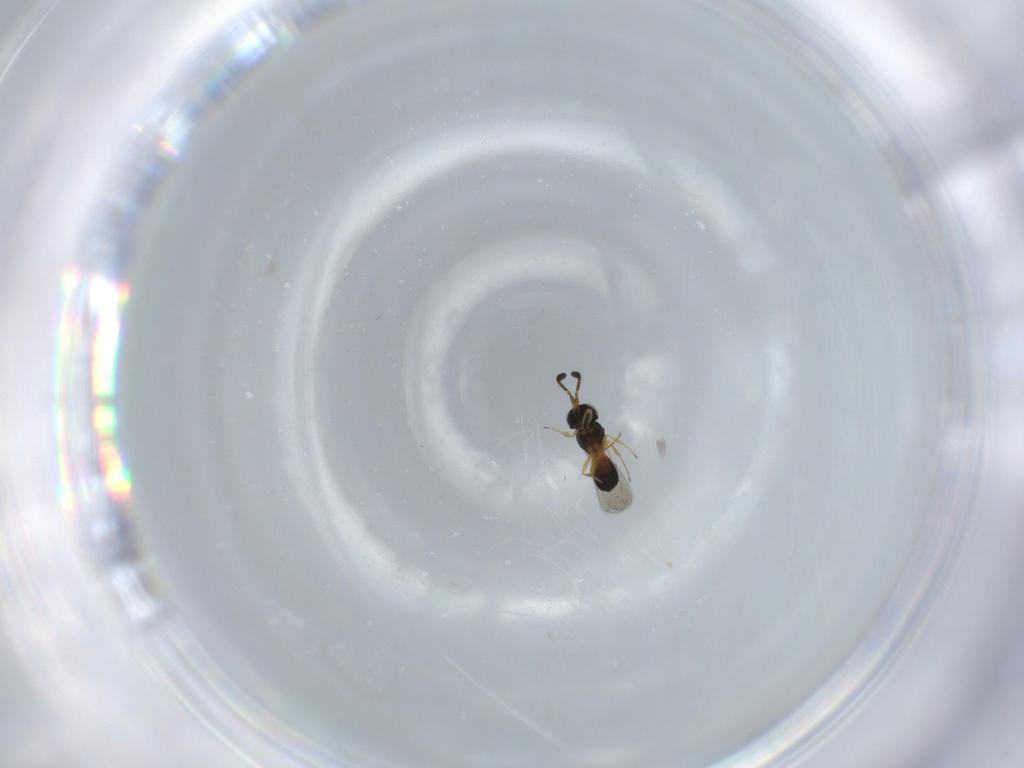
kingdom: Animalia
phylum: Arthropoda
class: Insecta
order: Hymenoptera
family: Scelionidae
